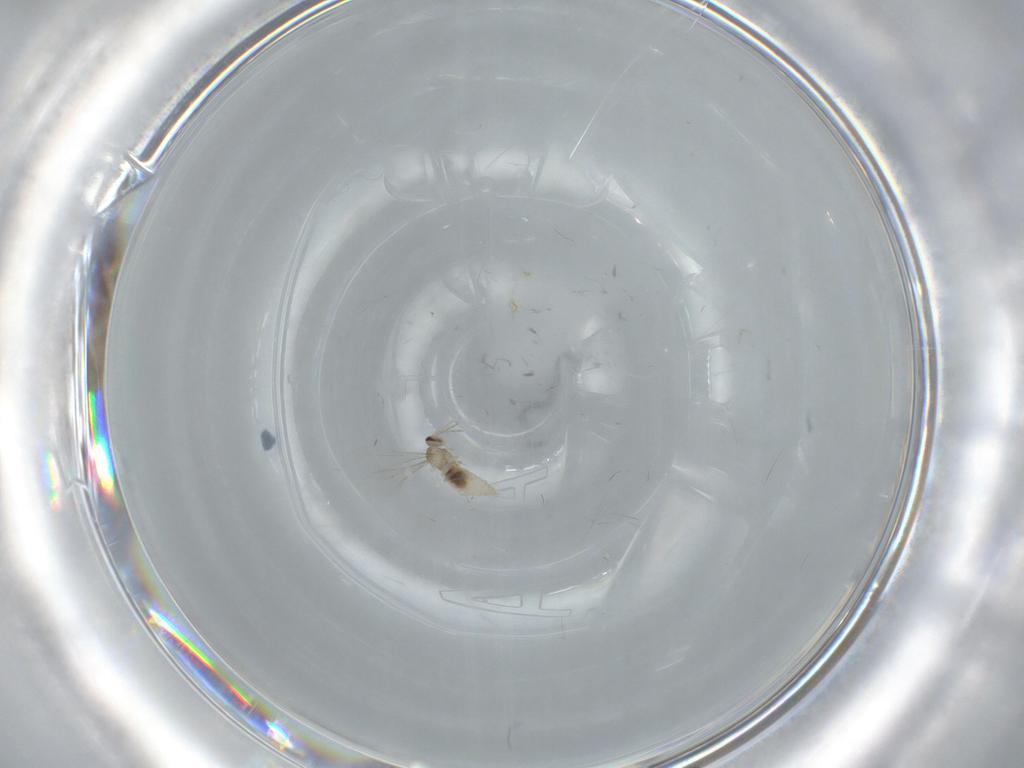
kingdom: Animalia
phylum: Arthropoda
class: Insecta
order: Diptera
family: Cecidomyiidae
